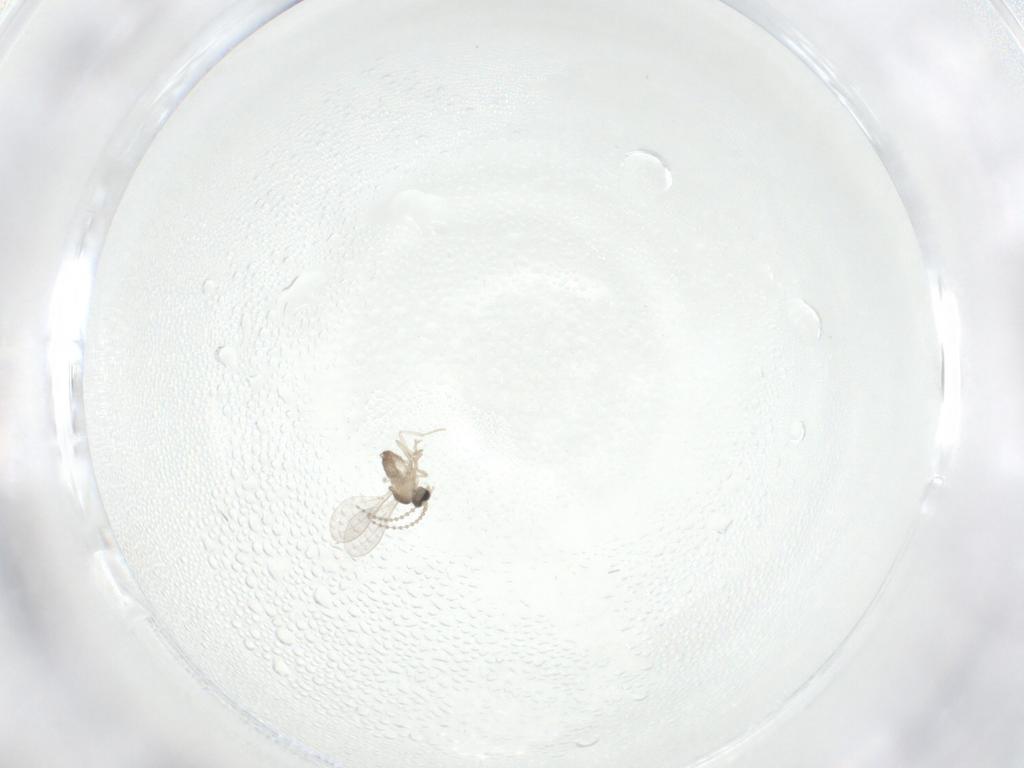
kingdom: Animalia
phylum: Arthropoda
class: Insecta
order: Diptera
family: Cecidomyiidae
